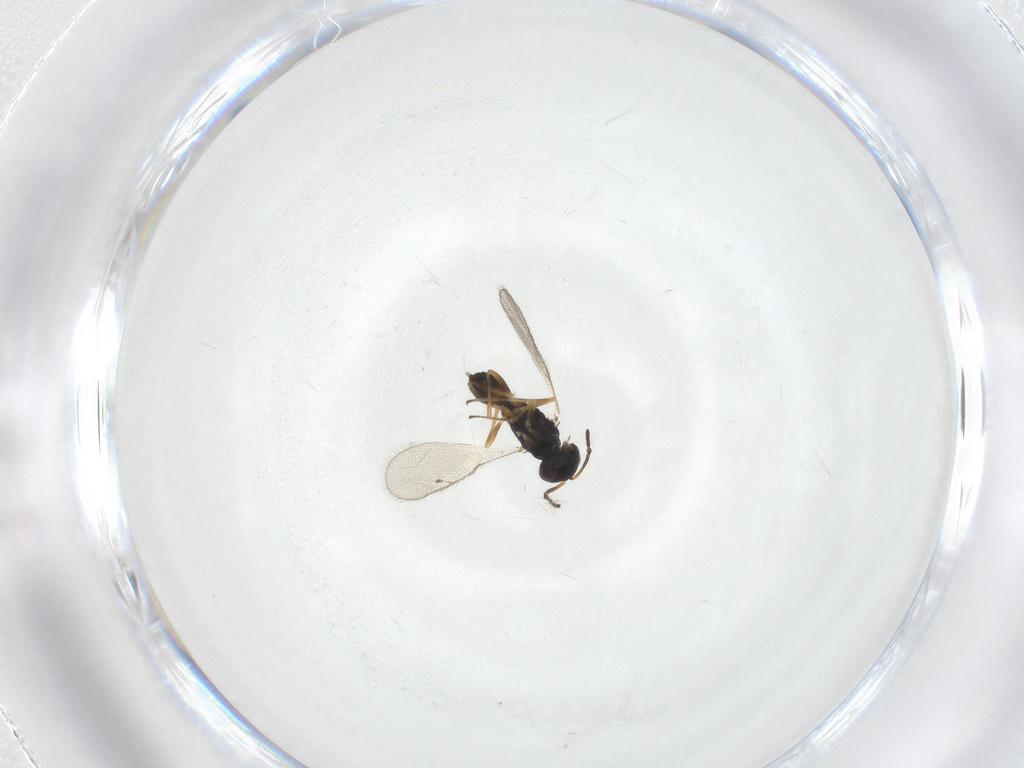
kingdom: Animalia
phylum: Arthropoda
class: Insecta
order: Hymenoptera
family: Pteromalidae
